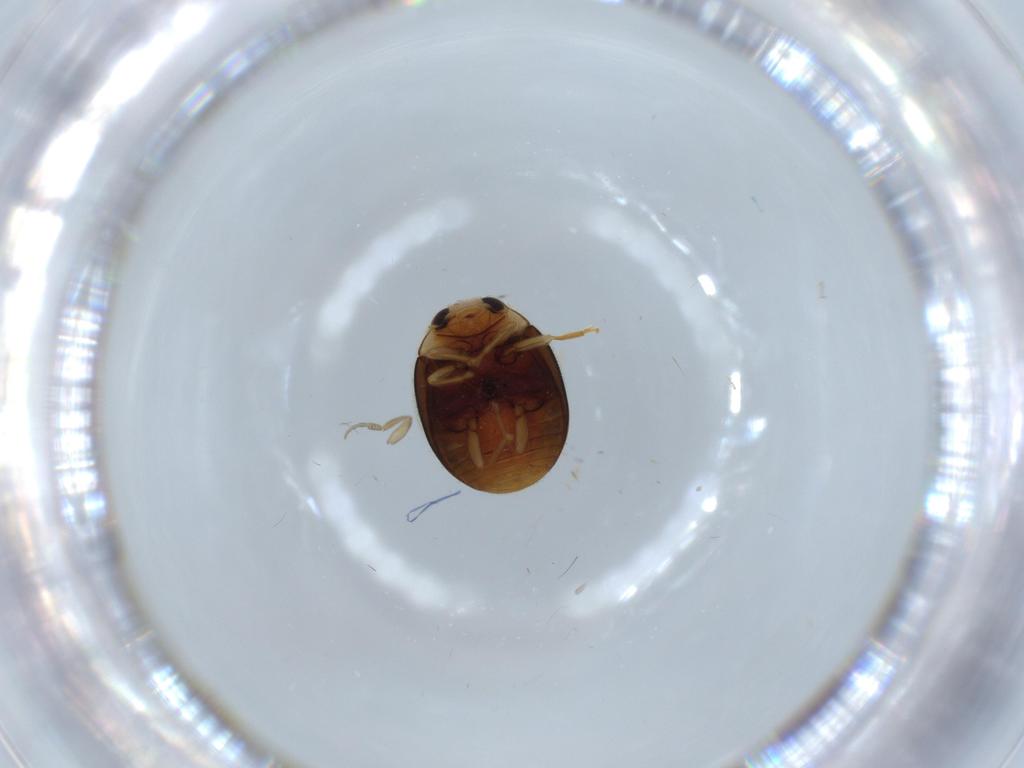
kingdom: Animalia
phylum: Arthropoda
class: Insecta
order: Coleoptera
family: Coccinellidae
